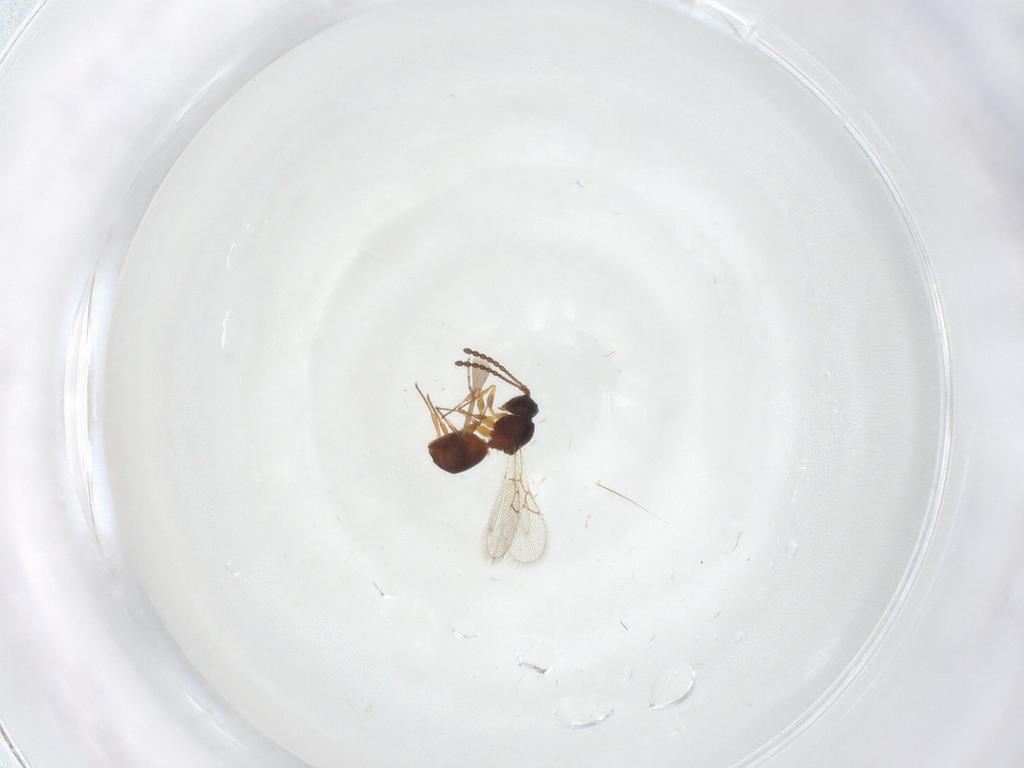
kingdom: Animalia
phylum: Arthropoda
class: Insecta
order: Hymenoptera
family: Figitidae
